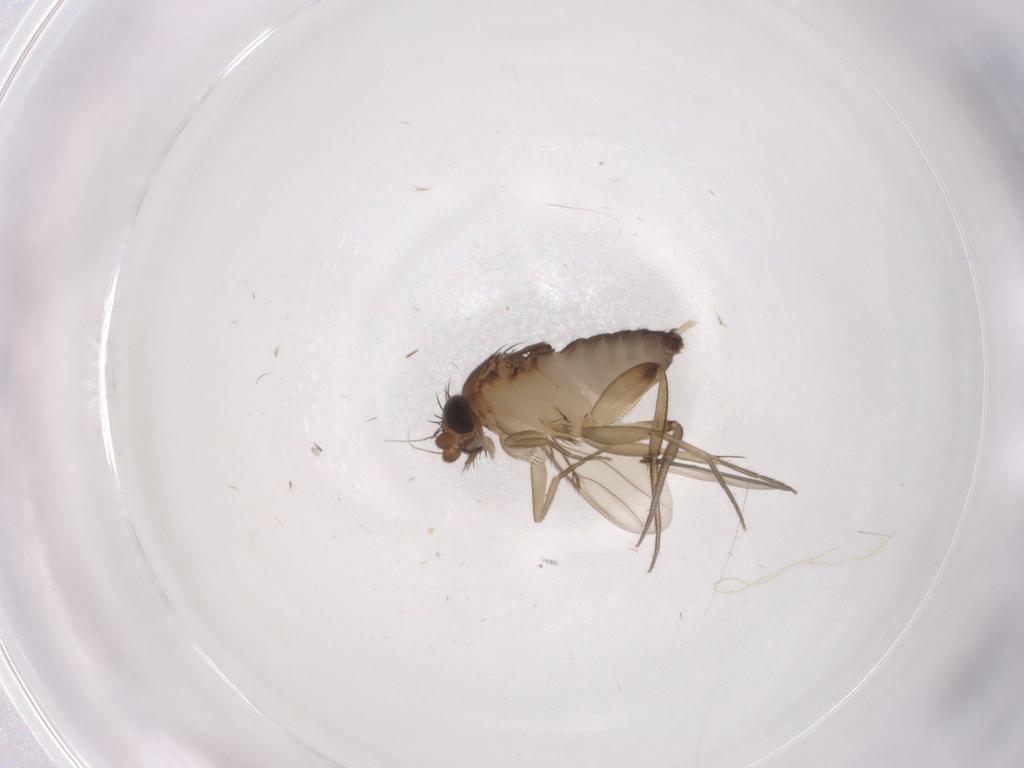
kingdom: Animalia
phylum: Arthropoda
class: Insecta
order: Diptera
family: Phoridae
